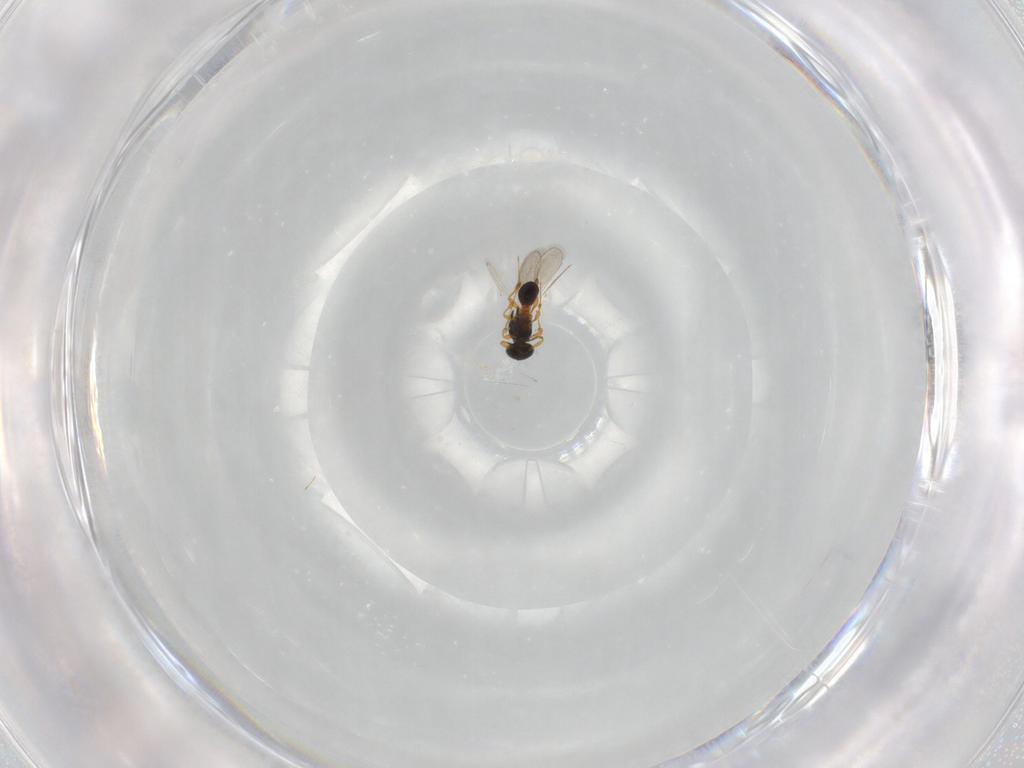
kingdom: Animalia
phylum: Arthropoda
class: Insecta
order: Hymenoptera
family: Platygastridae
